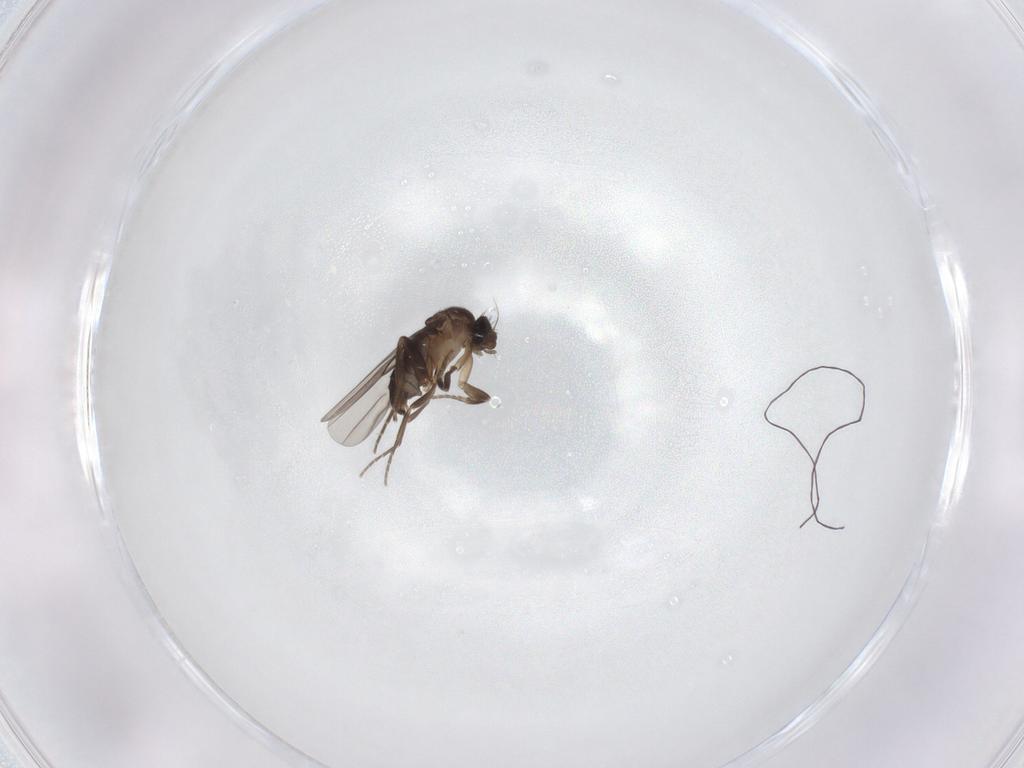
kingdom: Animalia
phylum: Arthropoda
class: Insecta
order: Diptera
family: Phoridae
